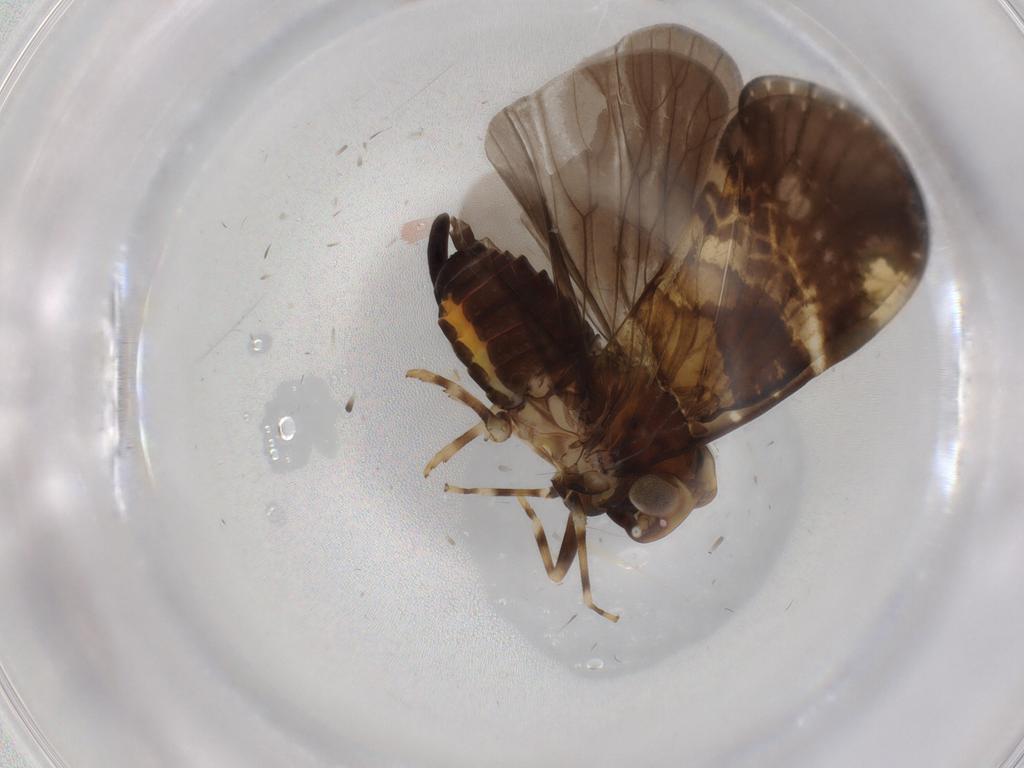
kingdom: Animalia
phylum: Arthropoda
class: Insecta
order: Hemiptera
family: Cixiidae
